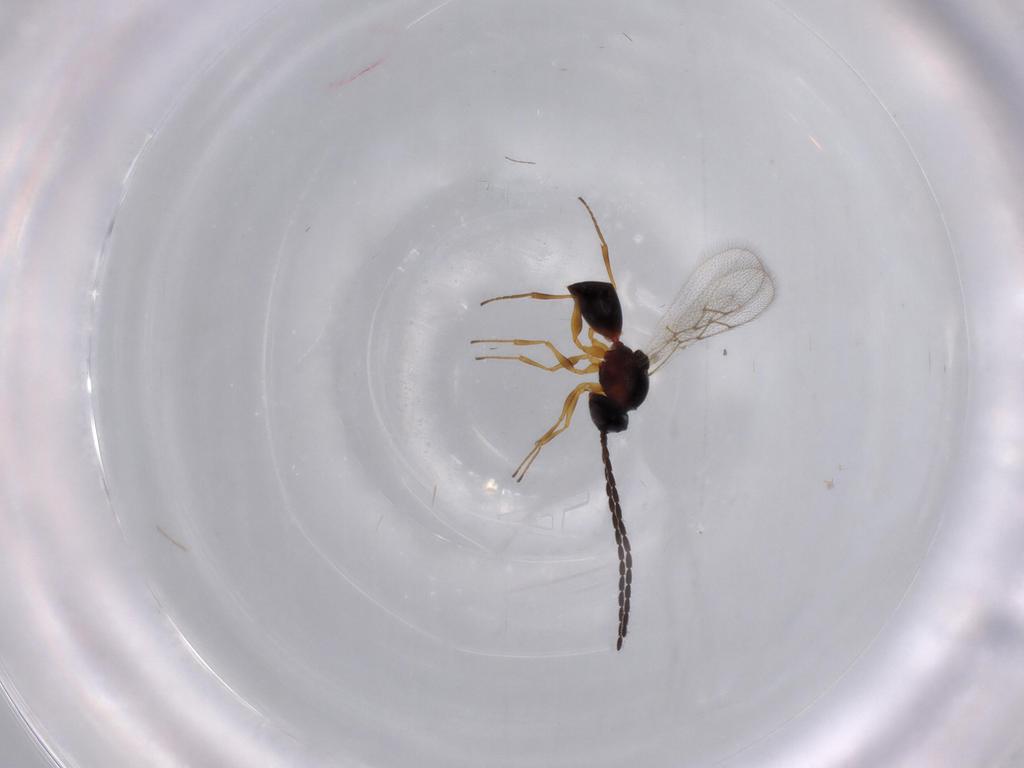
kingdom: Animalia
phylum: Arthropoda
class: Insecta
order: Hymenoptera
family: Figitidae
